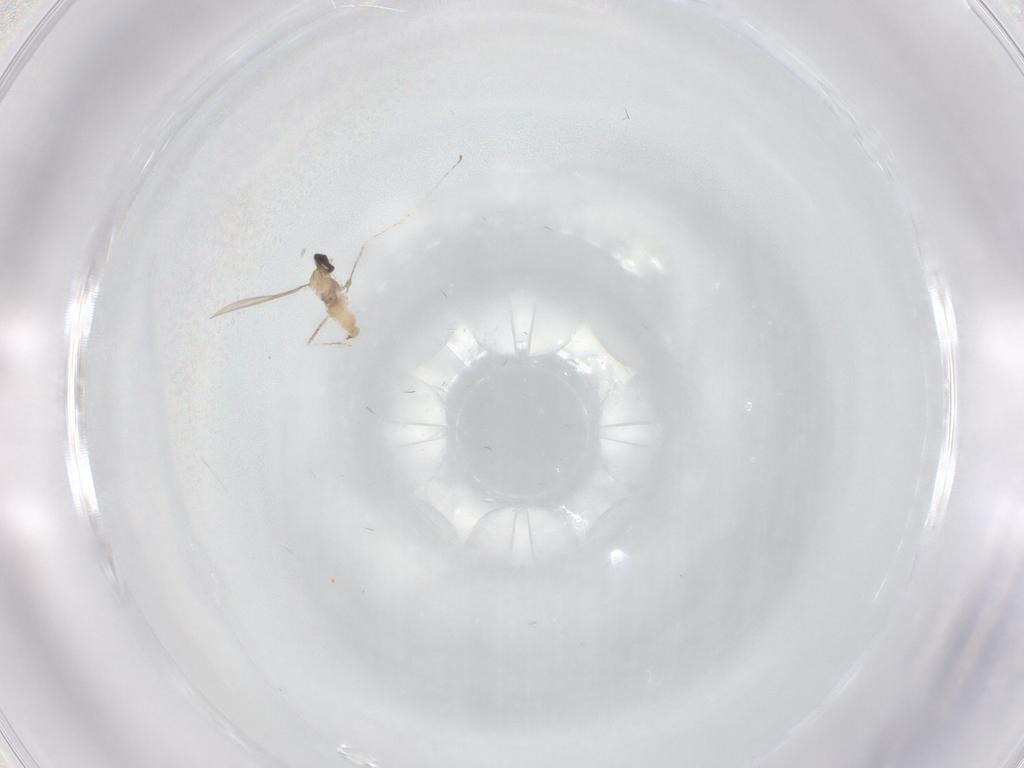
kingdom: Animalia
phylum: Arthropoda
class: Insecta
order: Diptera
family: Cecidomyiidae
